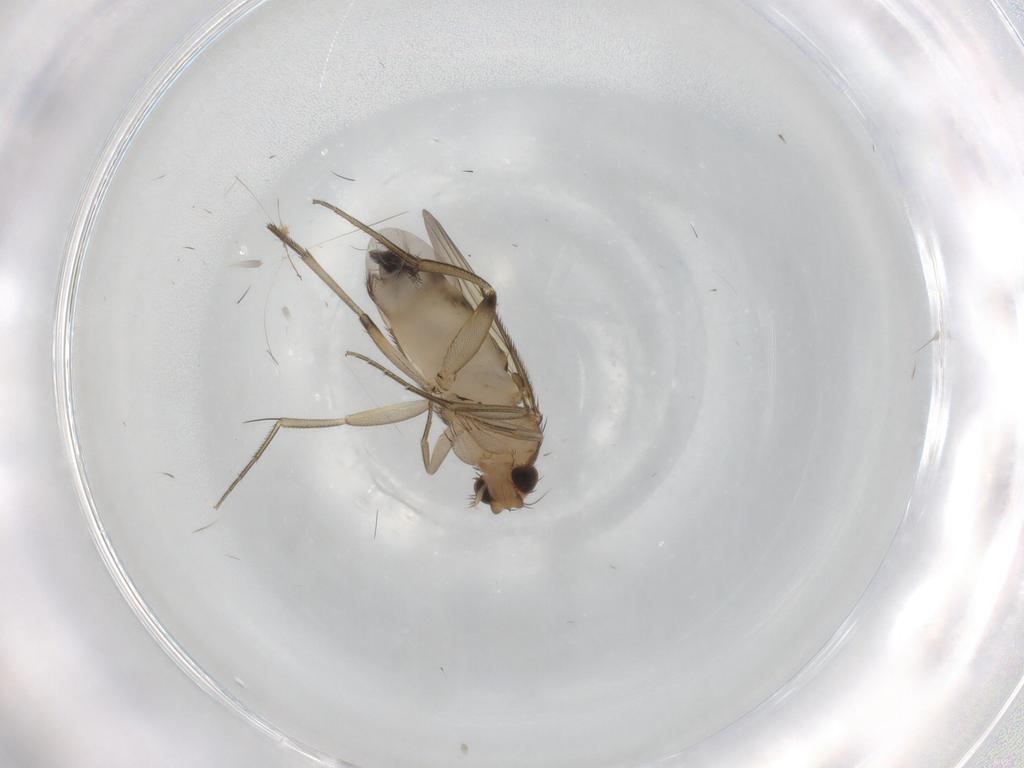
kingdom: Animalia
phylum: Arthropoda
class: Insecta
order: Diptera
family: Phoridae
